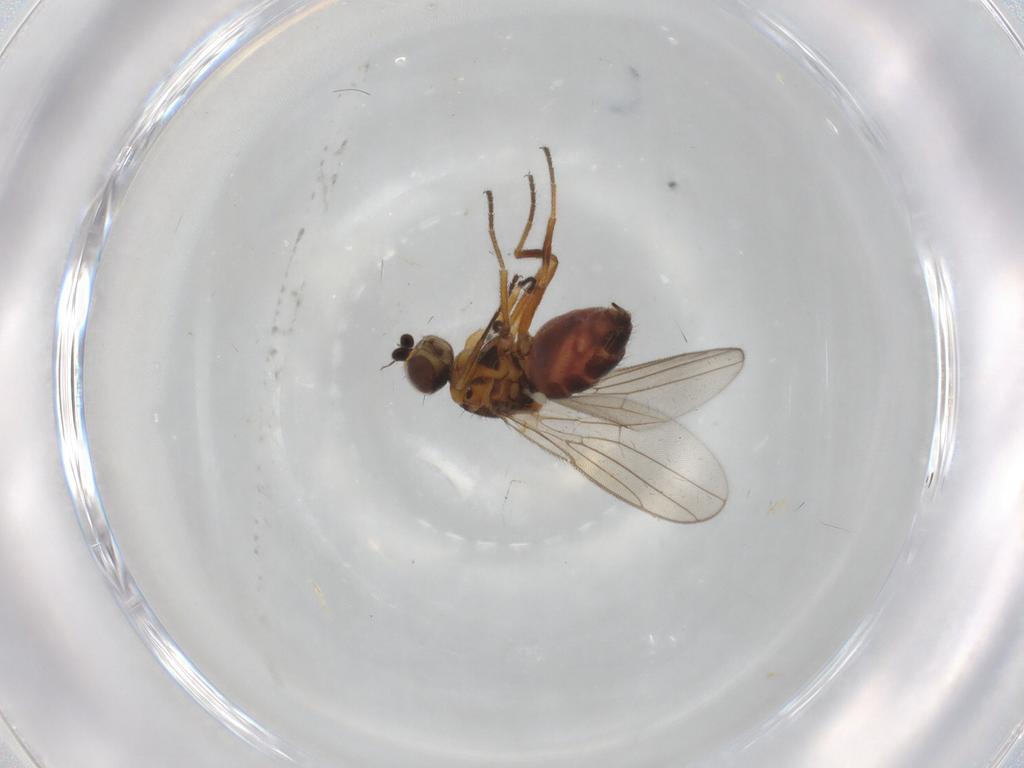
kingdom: Animalia
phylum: Arthropoda
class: Insecta
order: Diptera
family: Chloropidae
